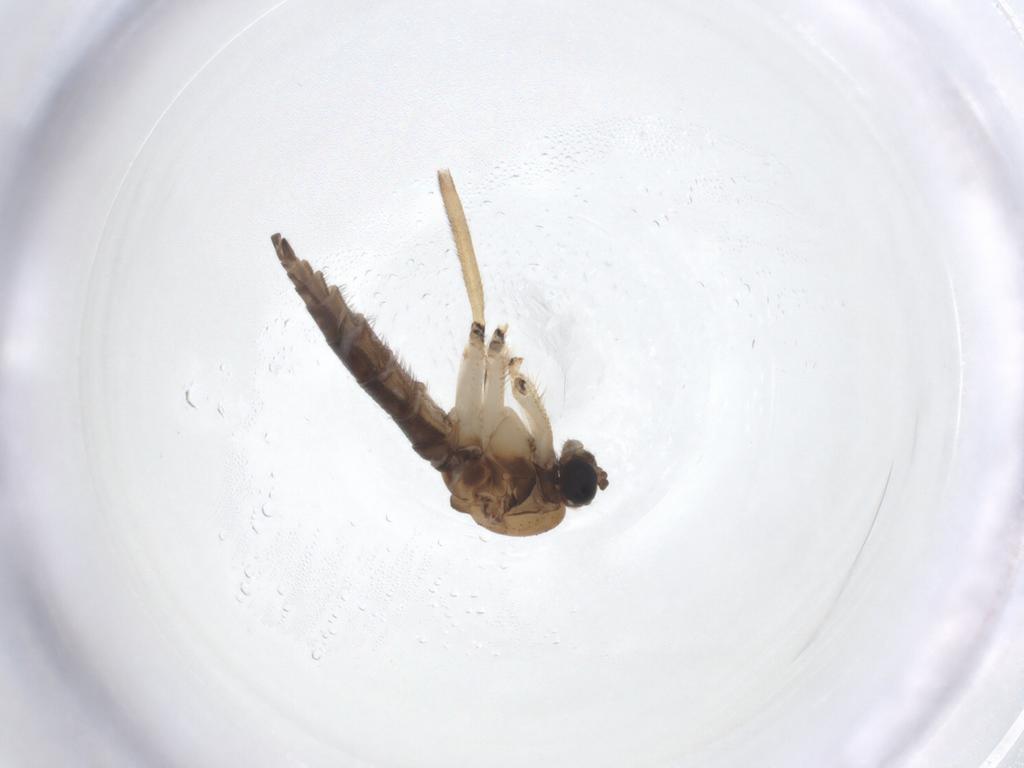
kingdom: Animalia
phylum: Arthropoda
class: Insecta
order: Diptera
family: Sciaridae
